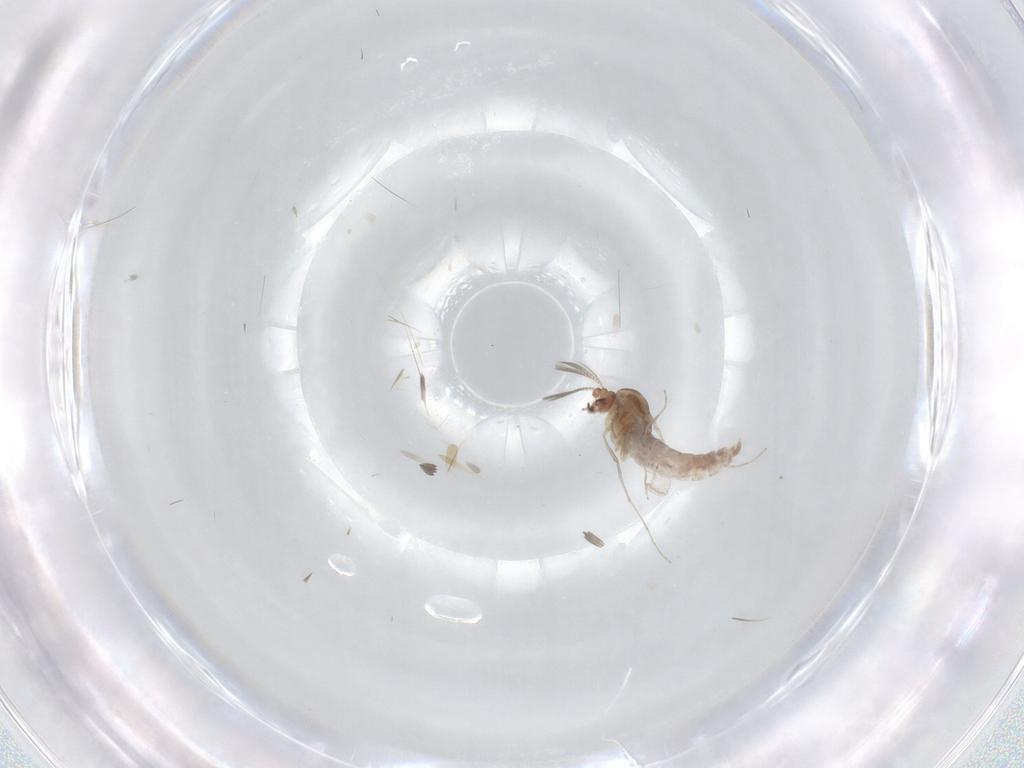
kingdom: Animalia
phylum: Arthropoda
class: Insecta
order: Diptera
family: Chironomidae
